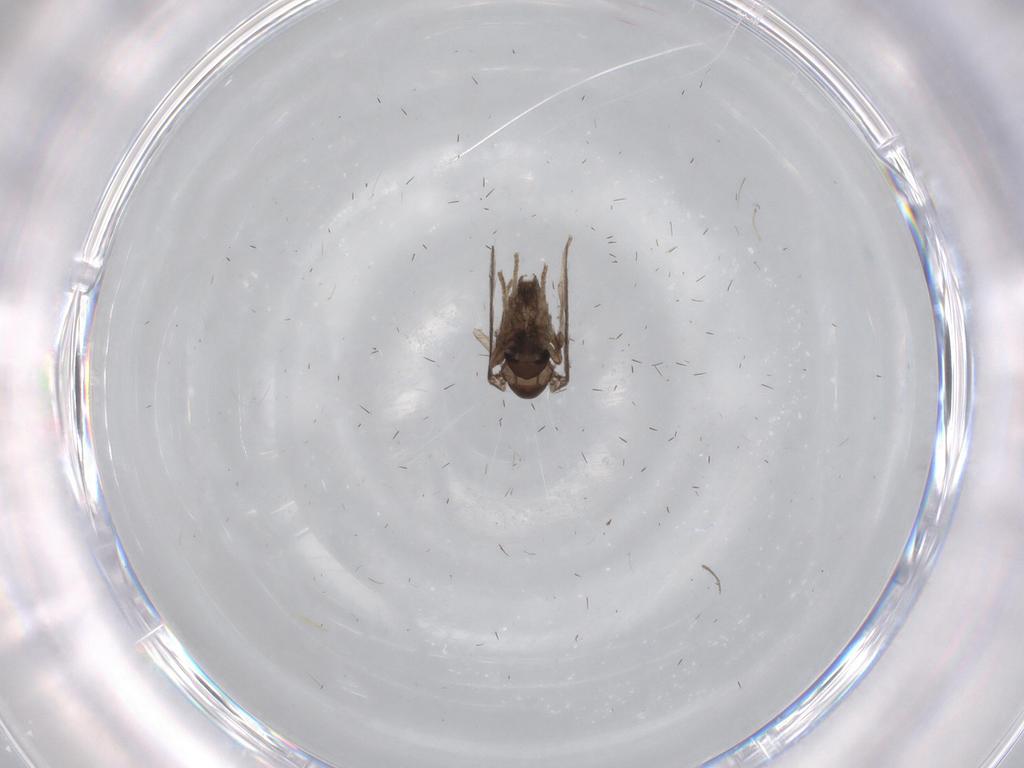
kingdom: Animalia
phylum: Arthropoda
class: Insecta
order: Diptera
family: Psychodidae
